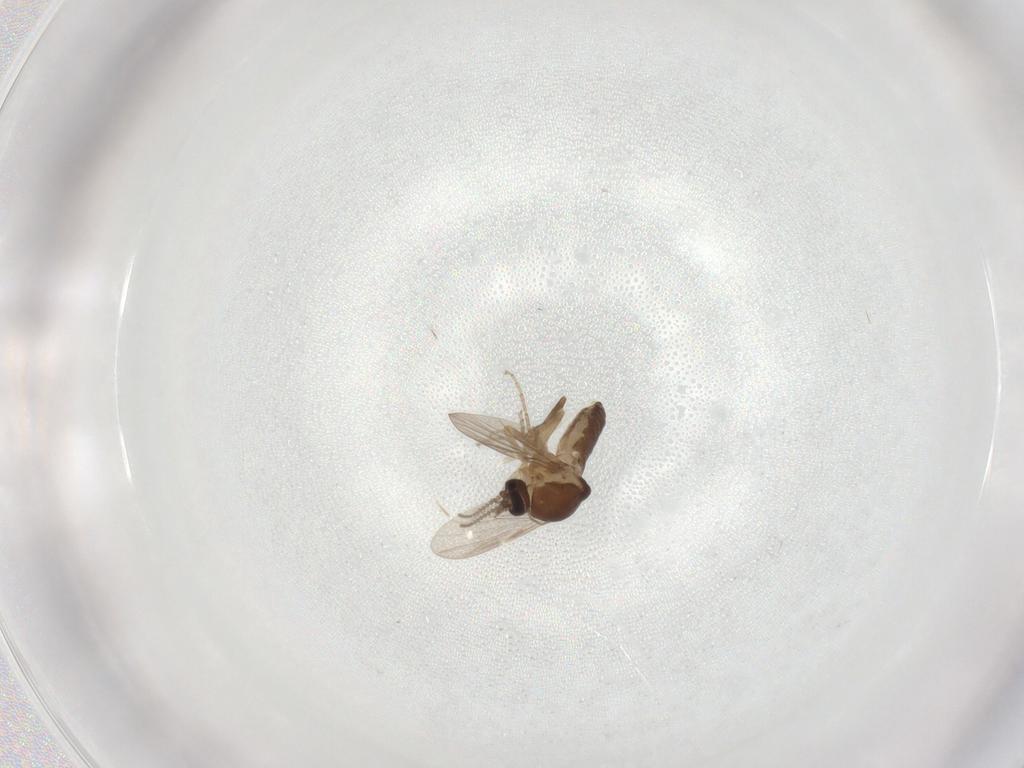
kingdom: Animalia
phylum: Arthropoda
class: Insecta
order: Diptera
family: Ceratopogonidae
